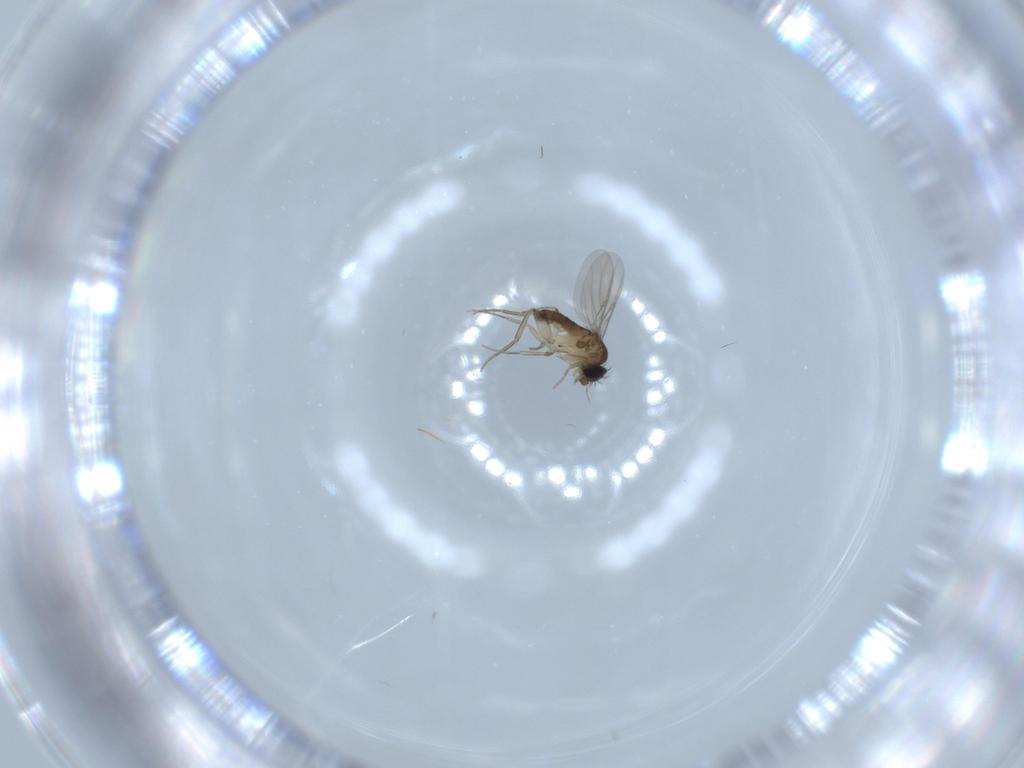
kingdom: Animalia
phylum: Arthropoda
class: Insecta
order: Diptera
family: Phoridae
